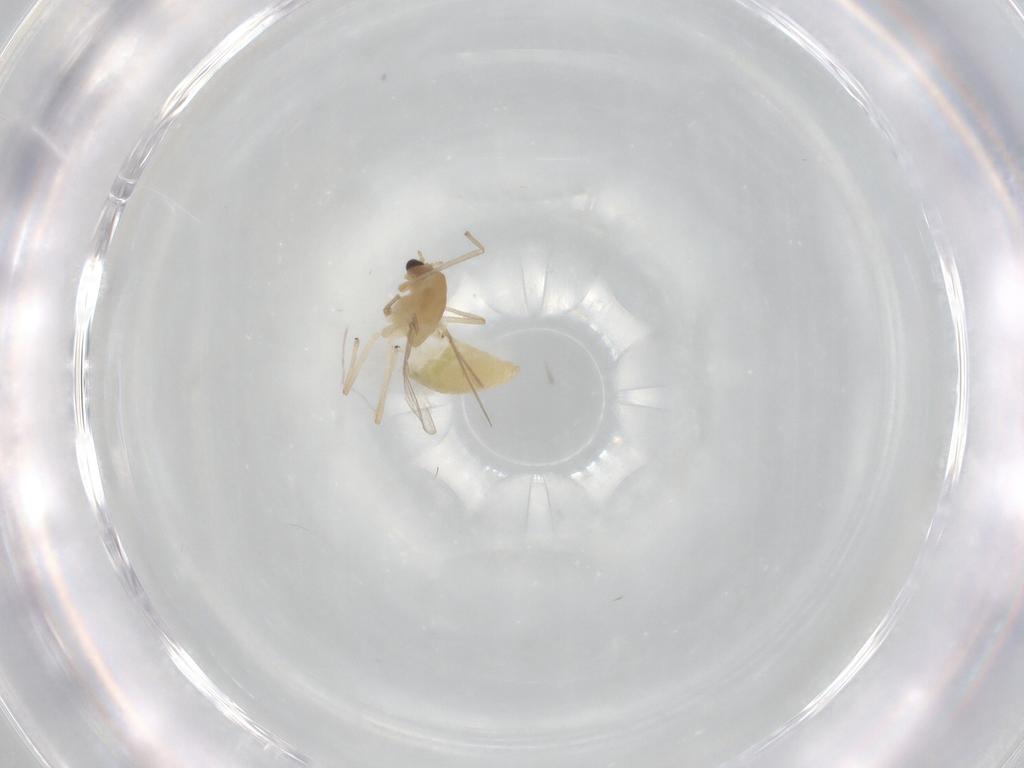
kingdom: Animalia
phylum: Arthropoda
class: Insecta
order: Diptera
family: Chironomidae
